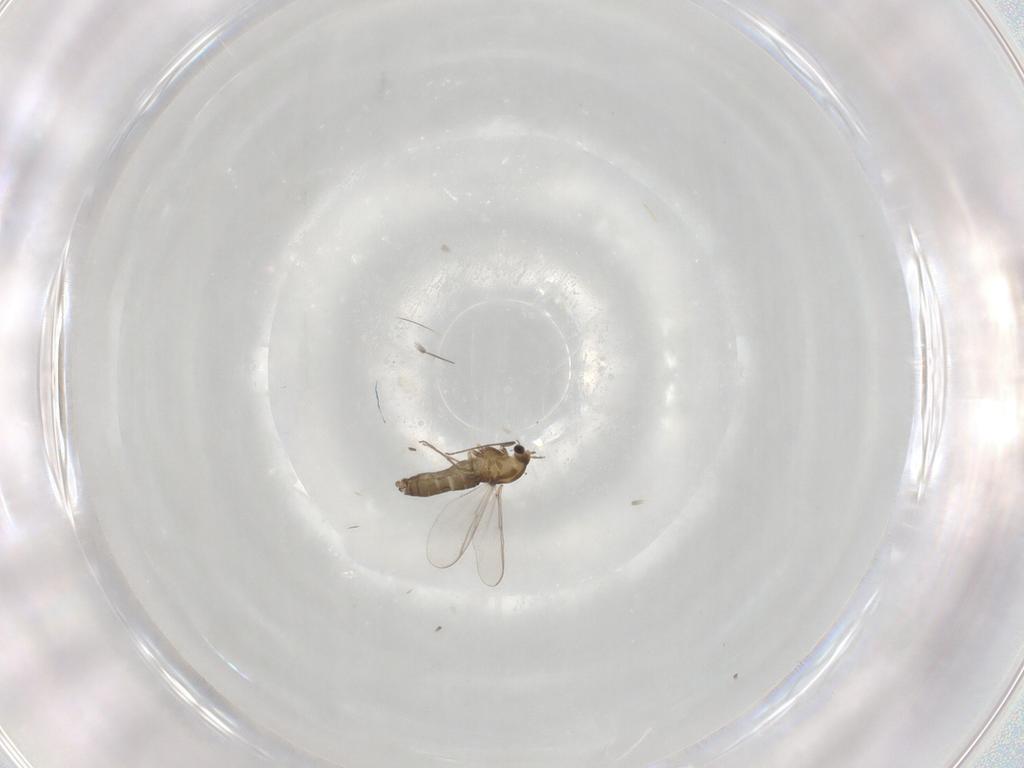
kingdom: Animalia
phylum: Arthropoda
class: Insecta
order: Diptera
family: Chironomidae
